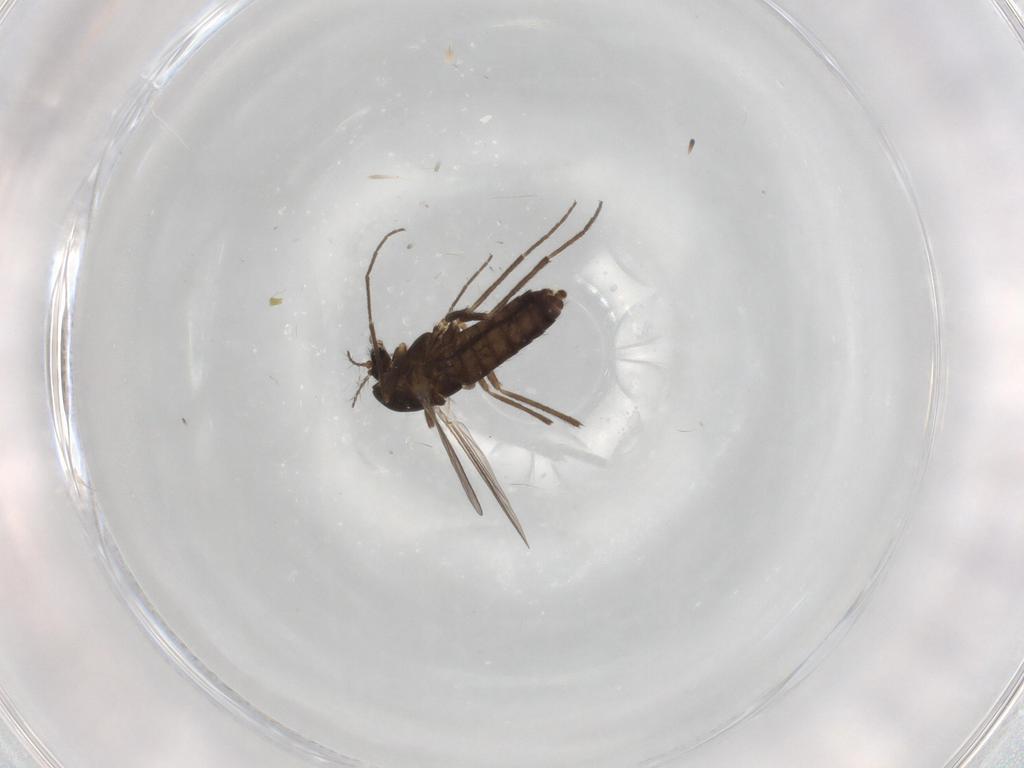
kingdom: Animalia
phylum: Arthropoda
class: Insecta
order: Diptera
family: Chironomidae
